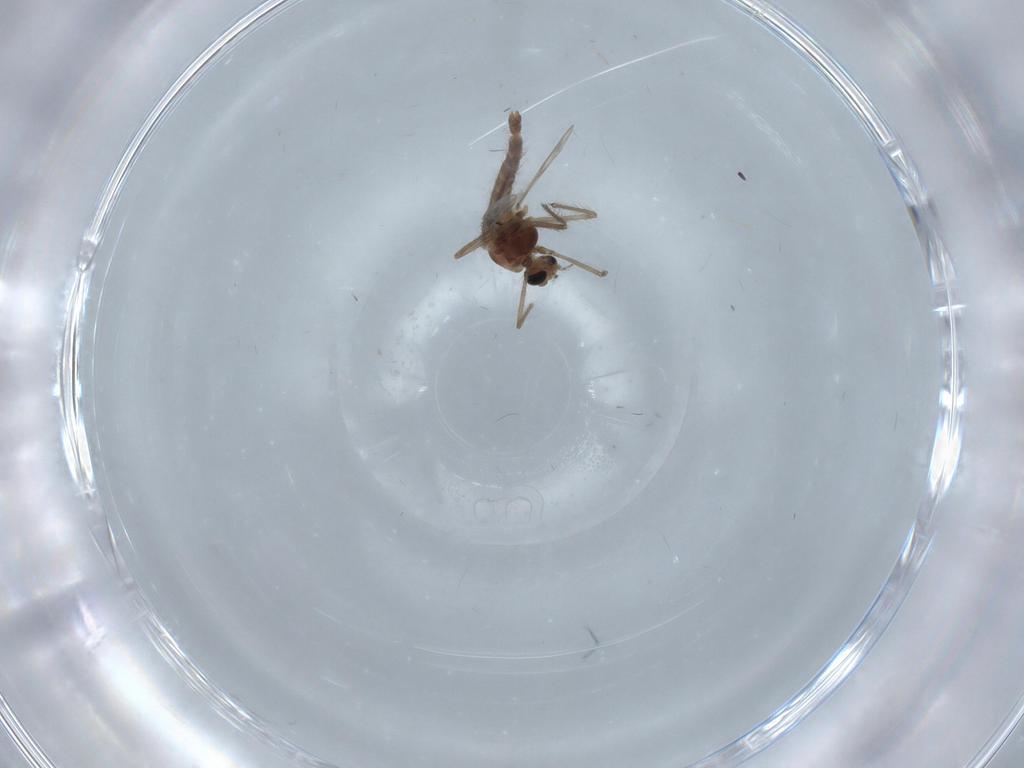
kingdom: Animalia
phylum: Arthropoda
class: Insecta
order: Diptera
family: Cecidomyiidae
